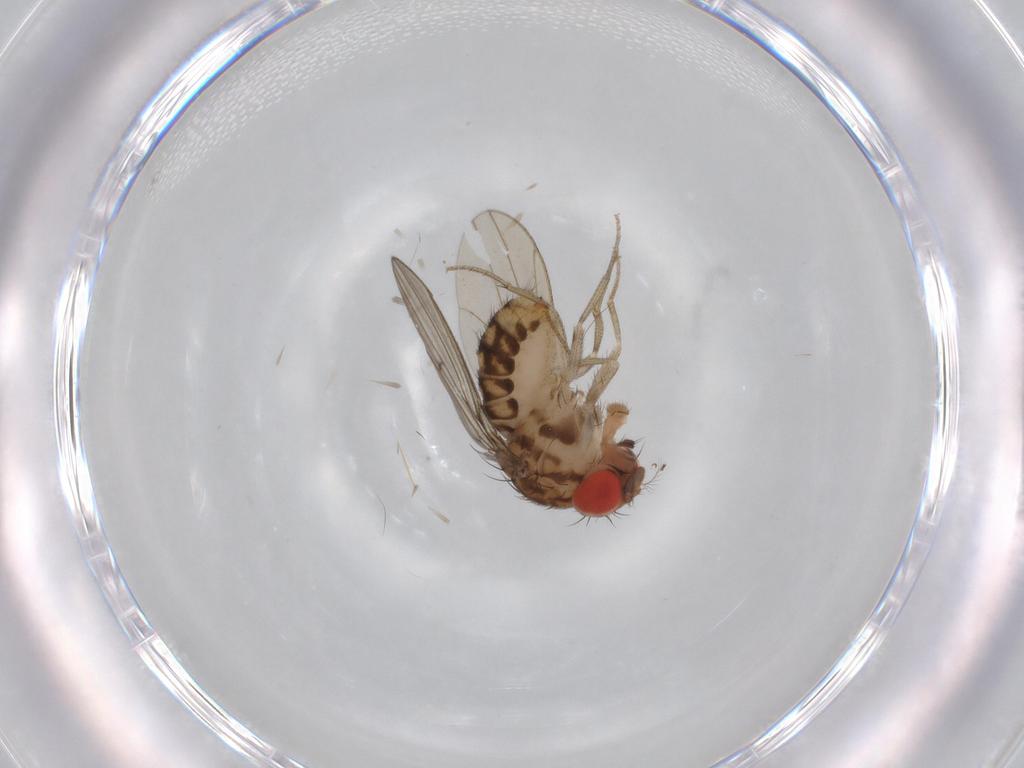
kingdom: Animalia
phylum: Arthropoda
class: Insecta
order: Diptera
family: Drosophilidae
